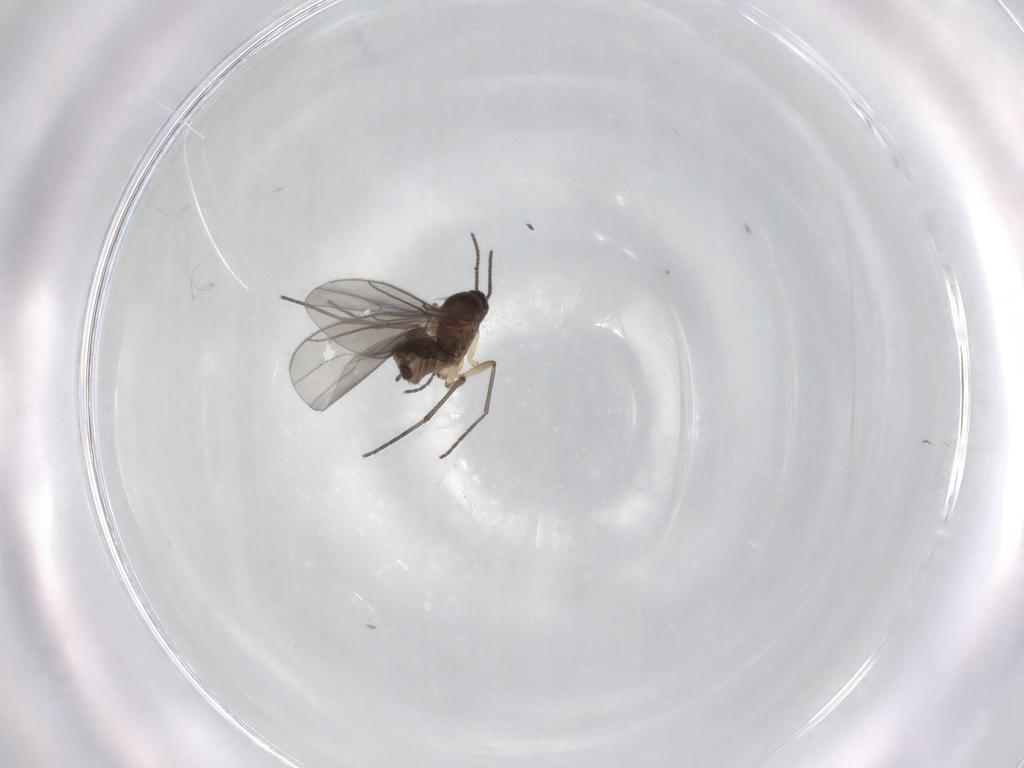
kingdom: Animalia
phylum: Arthropoda
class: Insecta
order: Diptera
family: Sciaridae
